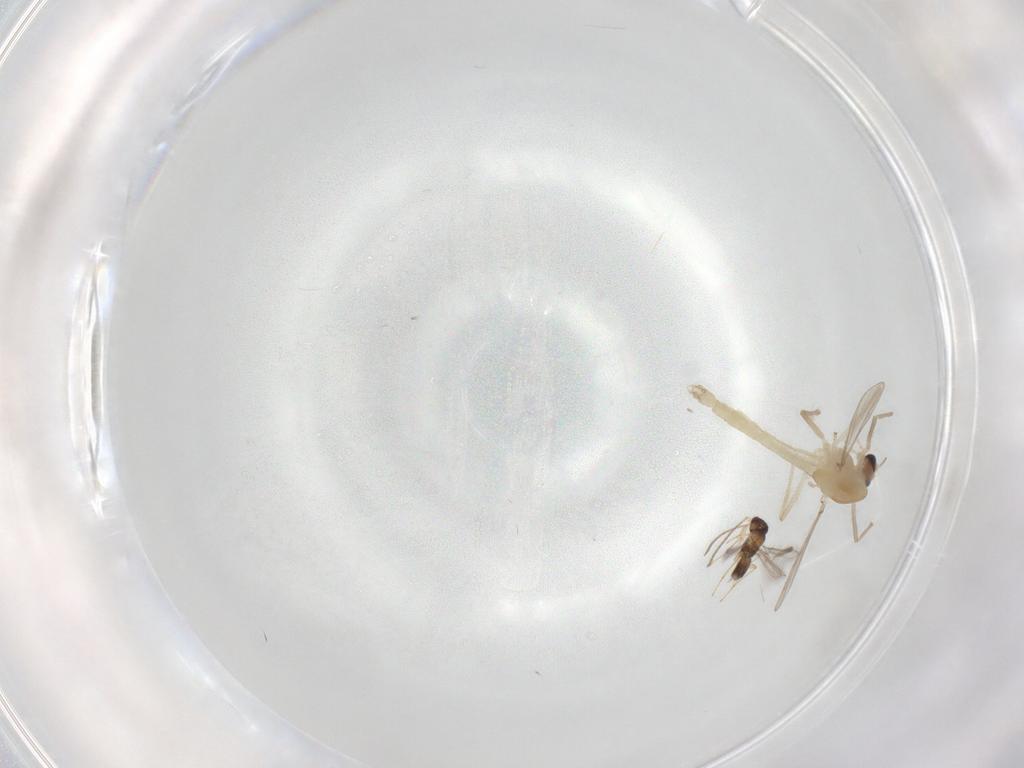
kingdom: Animalia
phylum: Arthropoda
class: Insecta
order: Diptera
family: Chironomidae
